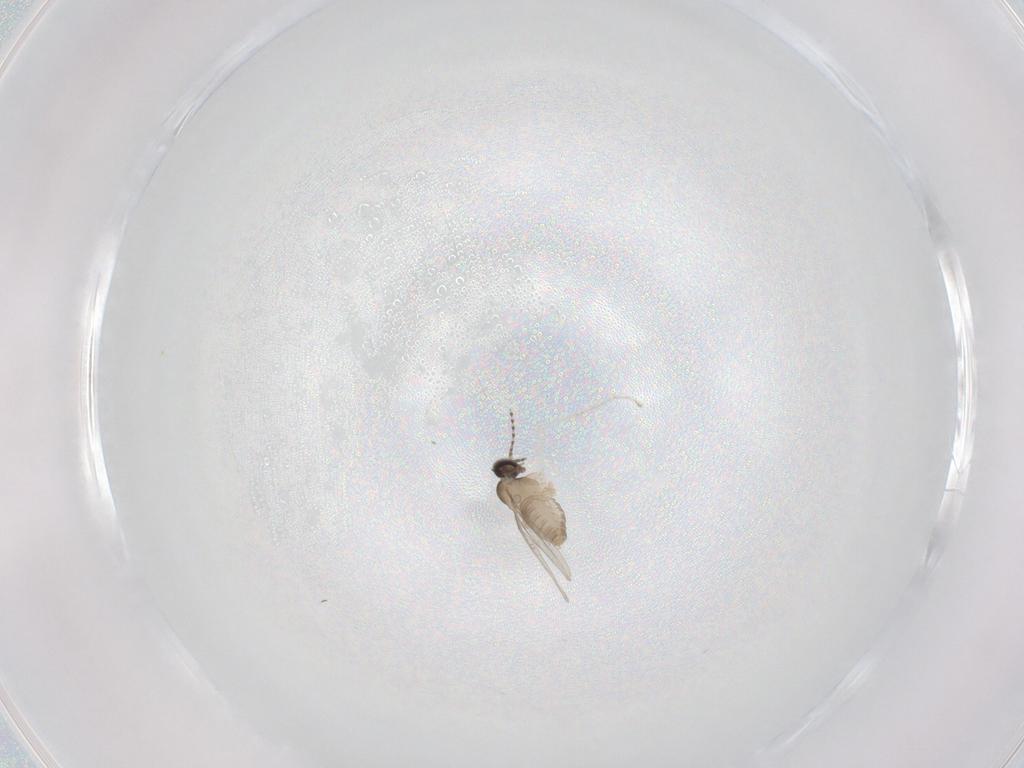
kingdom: Animalia
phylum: Arthropoda
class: Insecta
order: Diptera
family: Cecidomyiidae
